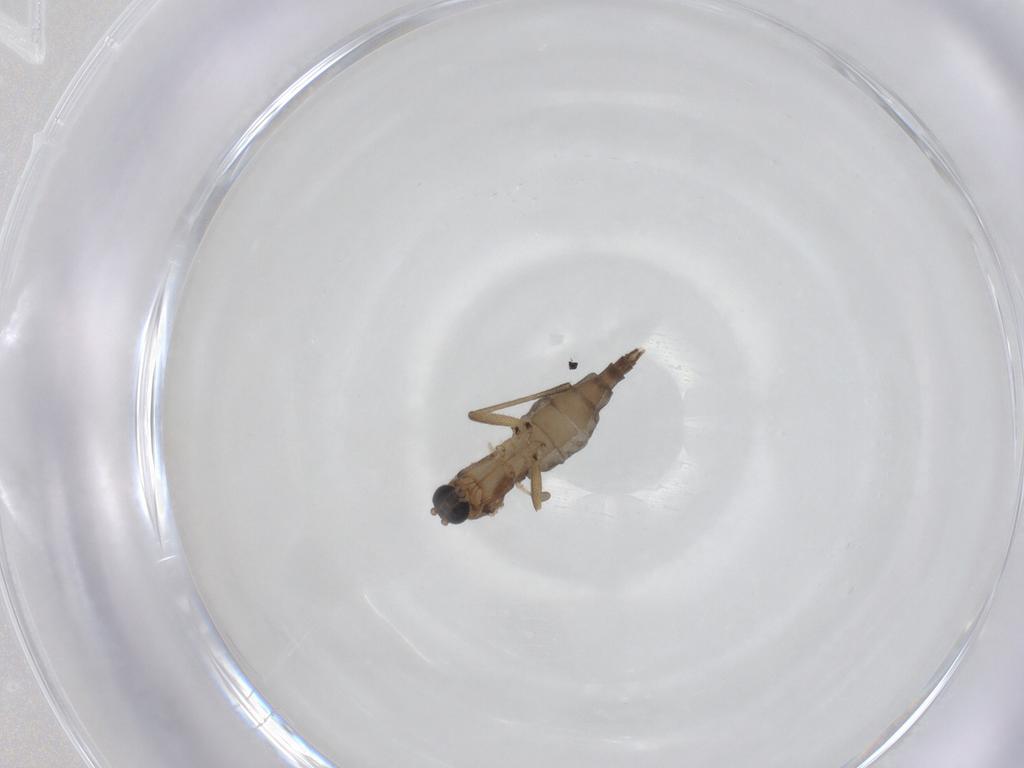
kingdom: Animalia
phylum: Arthropoda
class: Insecta
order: Diptera
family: Sciaridae
